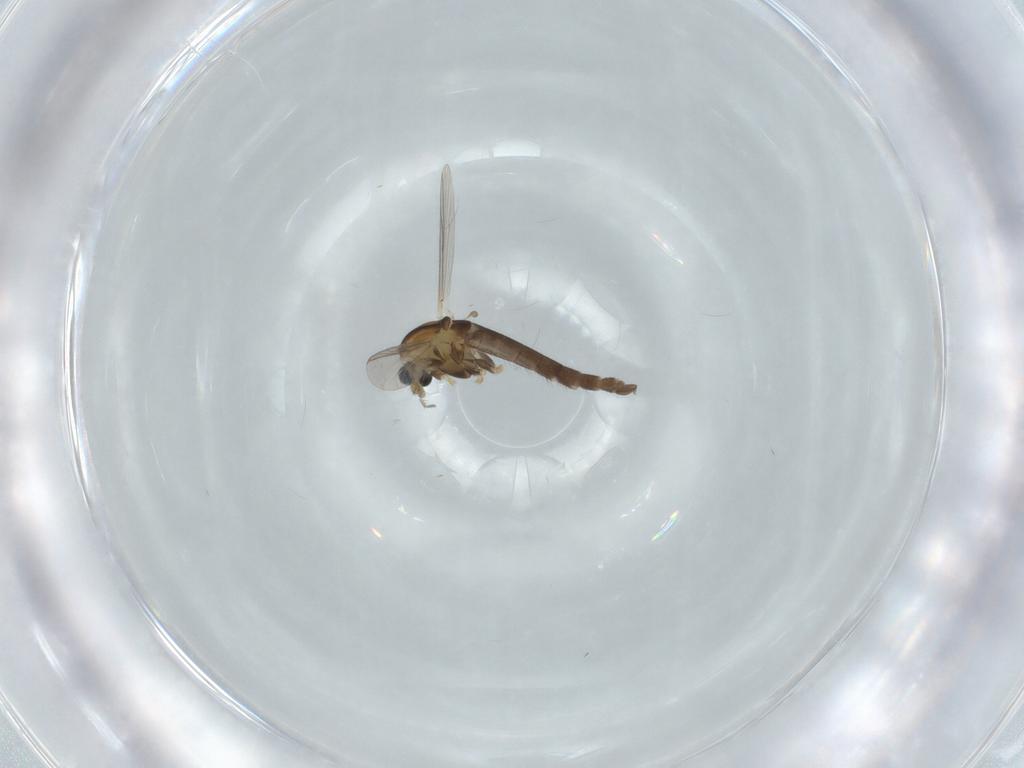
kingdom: Animalia
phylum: Arthropoda
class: Insecta
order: Diptera
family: Chironomidae
